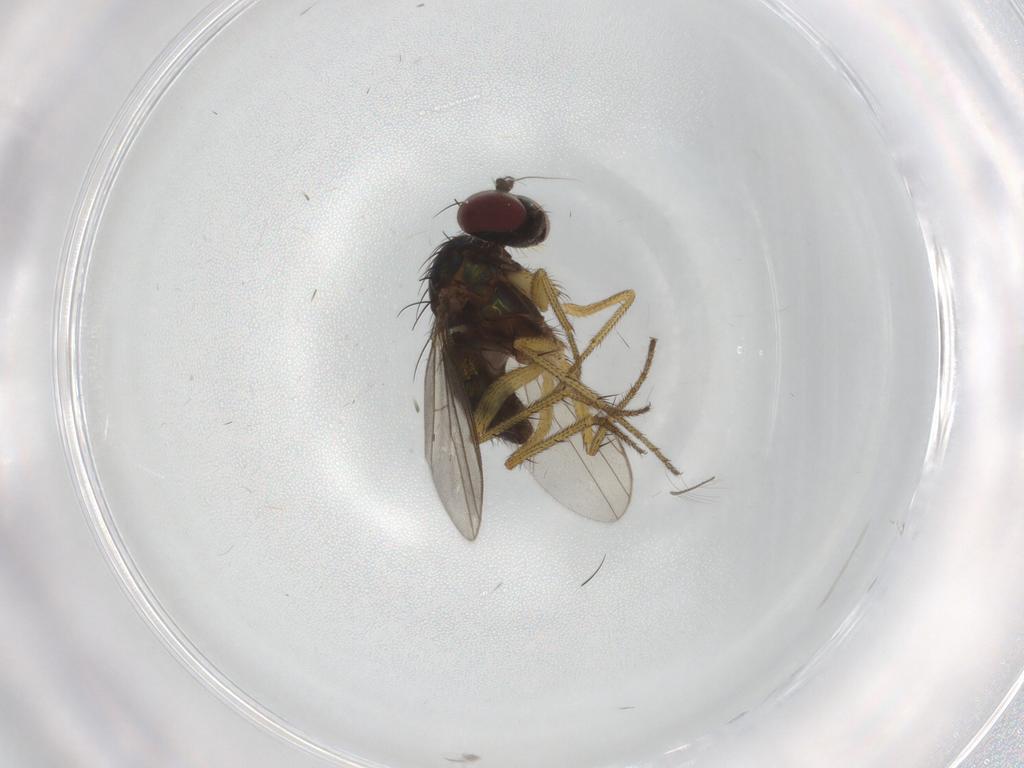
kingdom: Animalia
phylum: Arthropoda
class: Insecta
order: Diptera
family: Dolichopodidae
